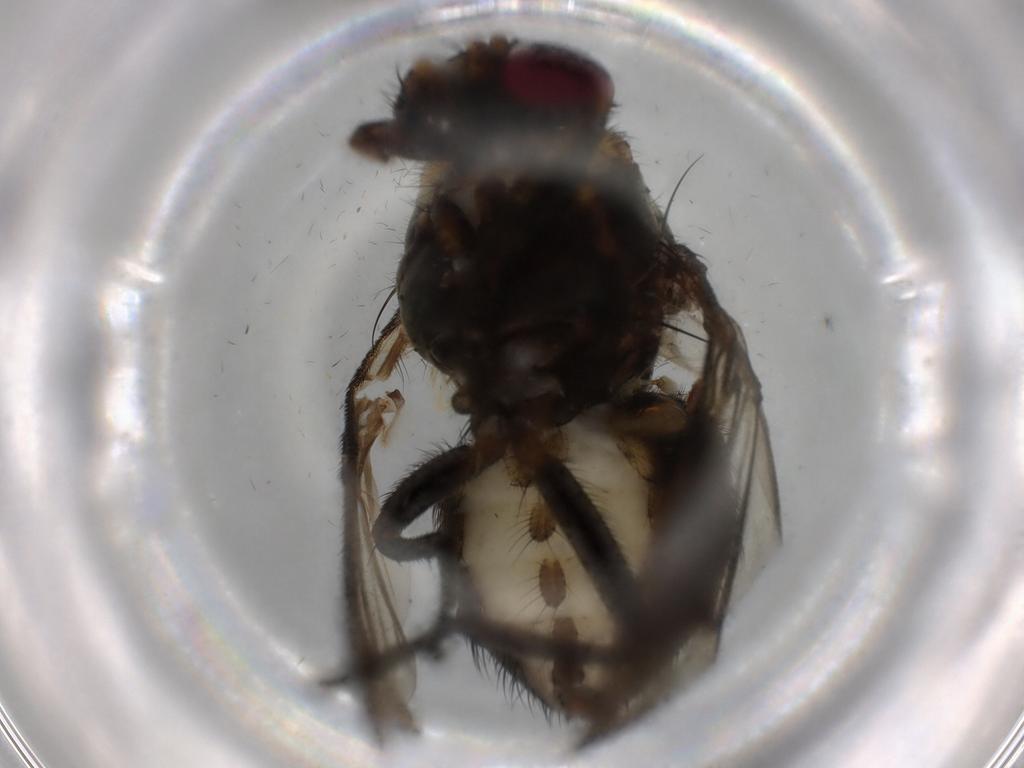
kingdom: Animalia
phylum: Arthropoda
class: Insecta
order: Diptera
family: Muscidae
